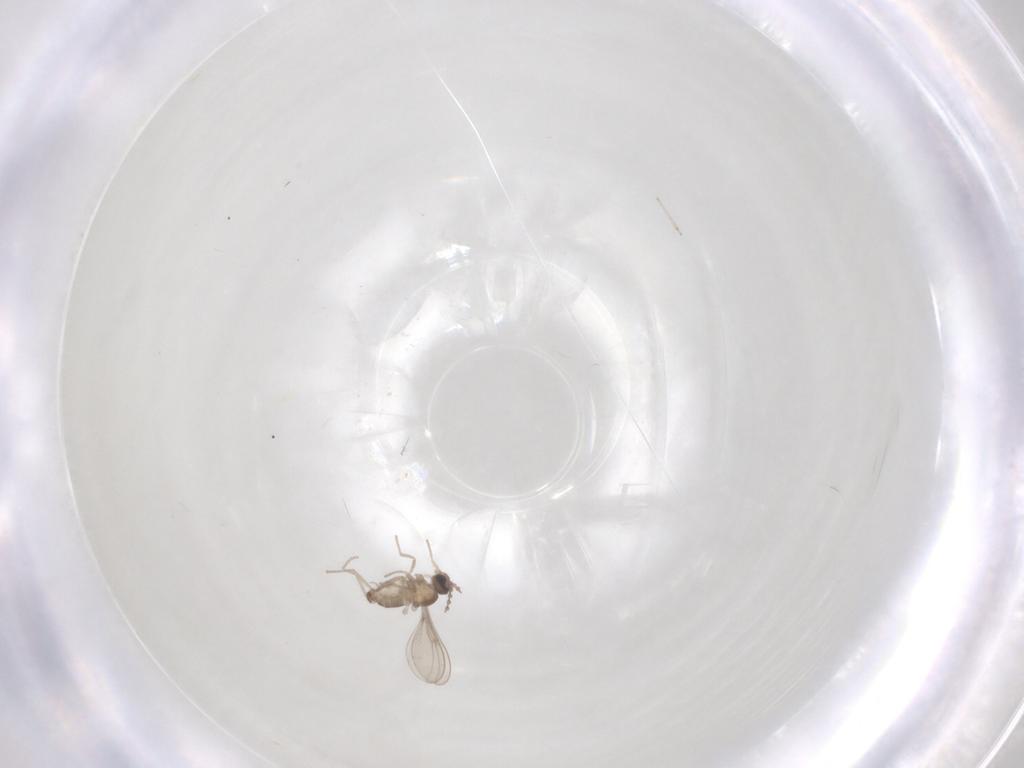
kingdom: Animalia
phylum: Arthropoda
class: Insecta
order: Diptera
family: Cecidomyiidae
